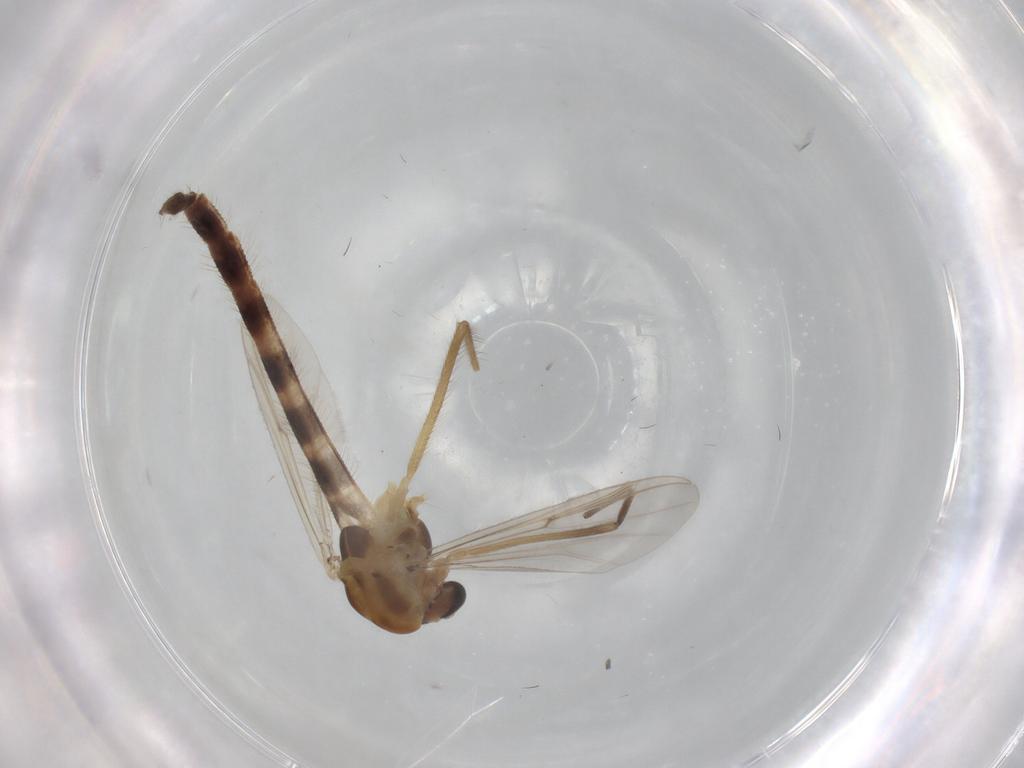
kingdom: Animalia
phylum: Arthropoda
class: Insecta
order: Diptera
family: Chironomidae
